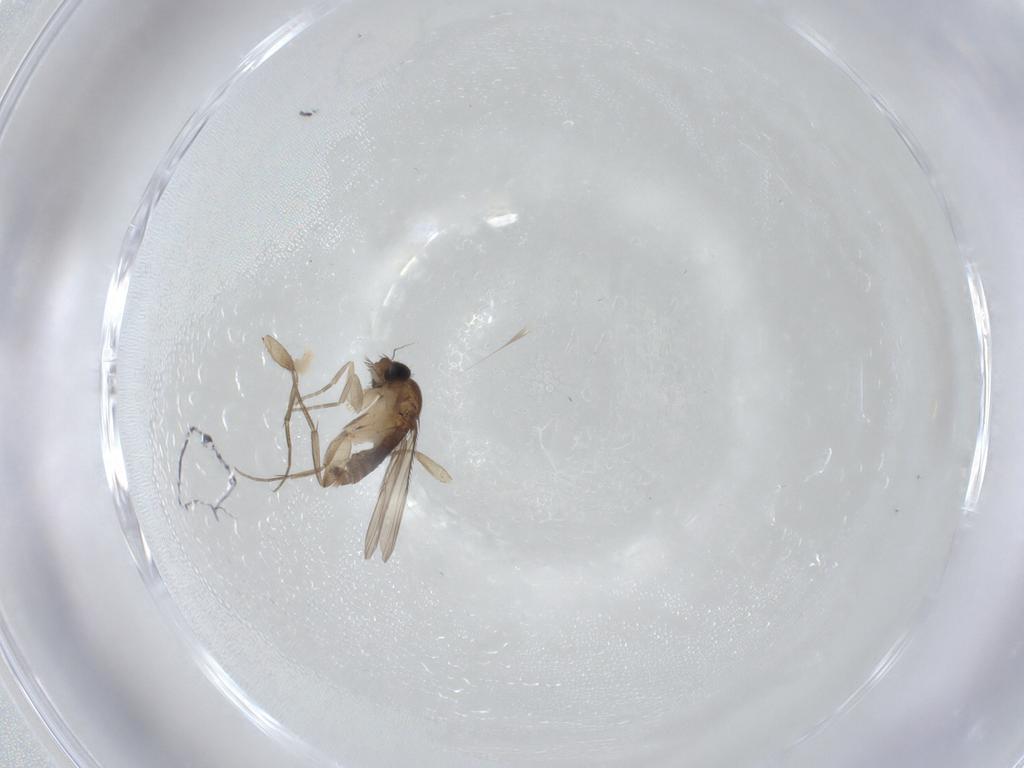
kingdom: Animalia
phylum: Arthropoda
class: Insecta
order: Diptera
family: Phoridae
